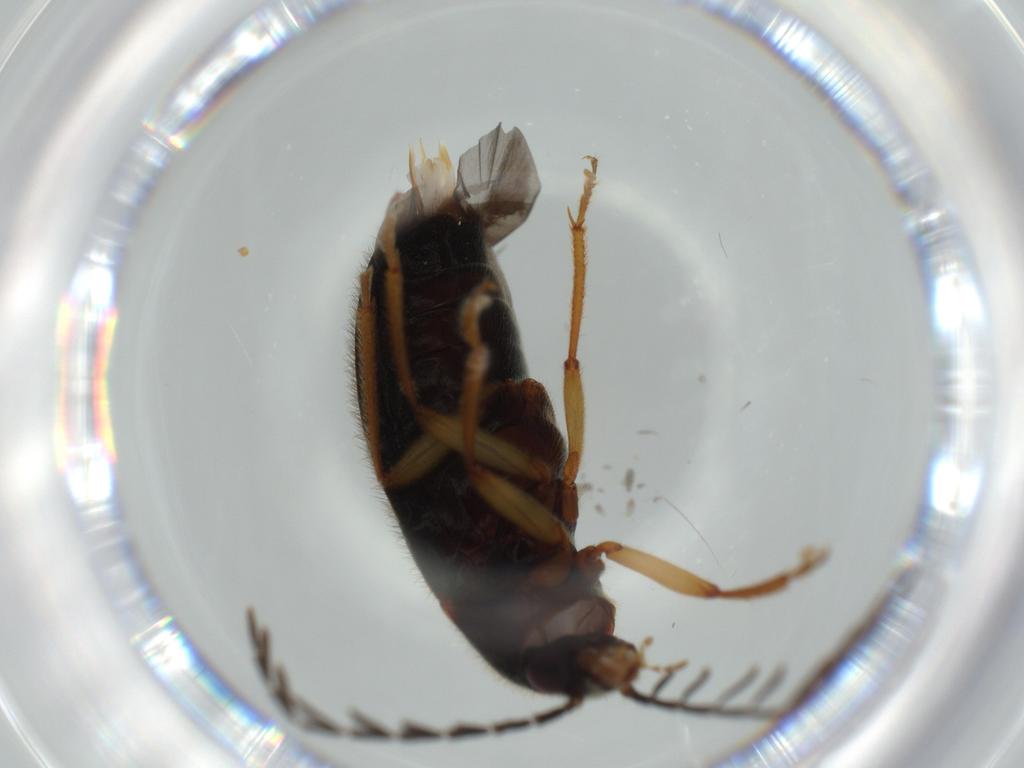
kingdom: Animalia
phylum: Arthropoda
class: Insecta
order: Coleoptera
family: Ptilodactylidae
